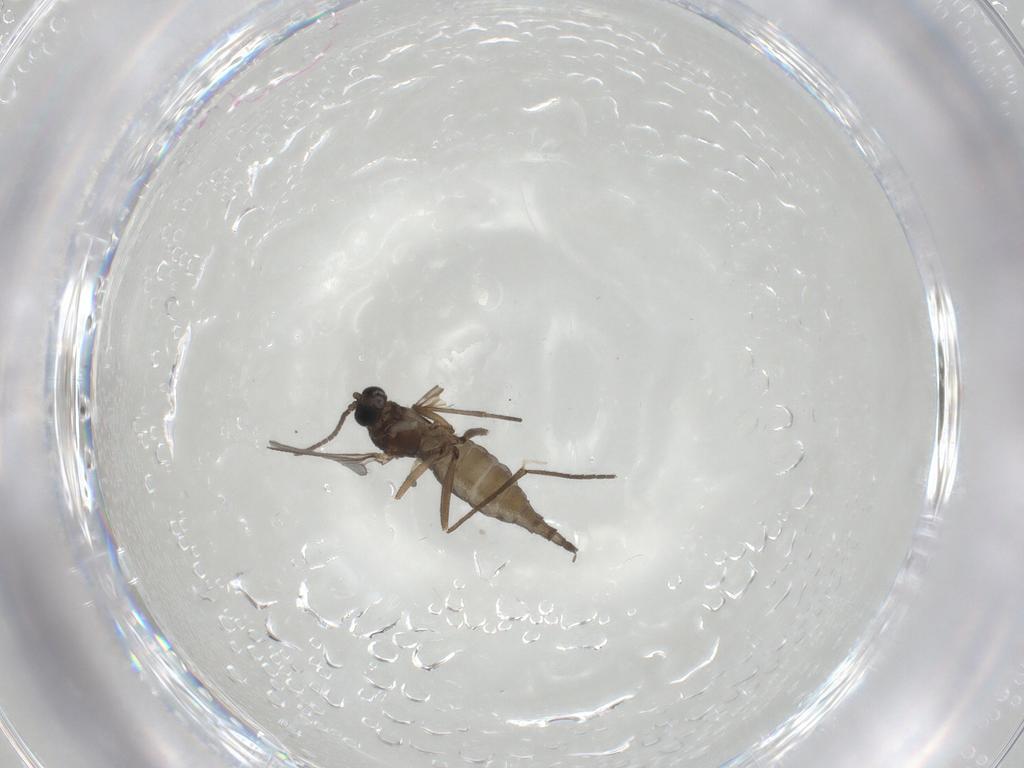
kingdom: Animalia
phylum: Arthropoda
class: Insecta
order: Diptera
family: Sciaridae
